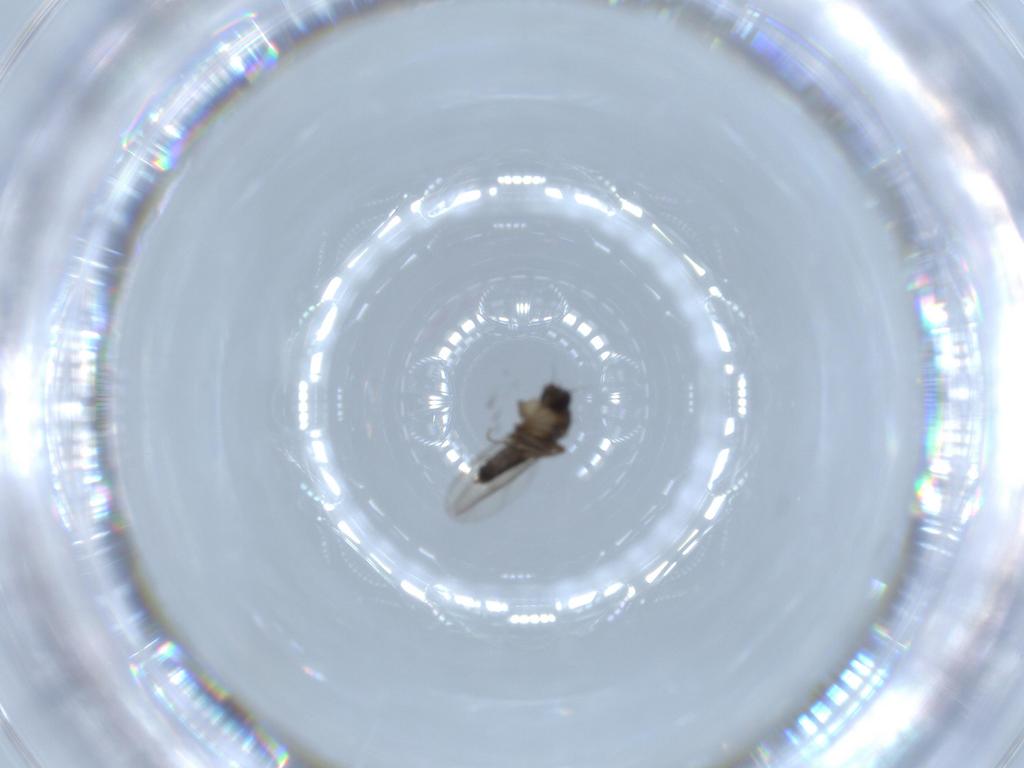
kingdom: Animalia
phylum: Arthropoda
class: Insecta
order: Diptera
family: Phoridae
